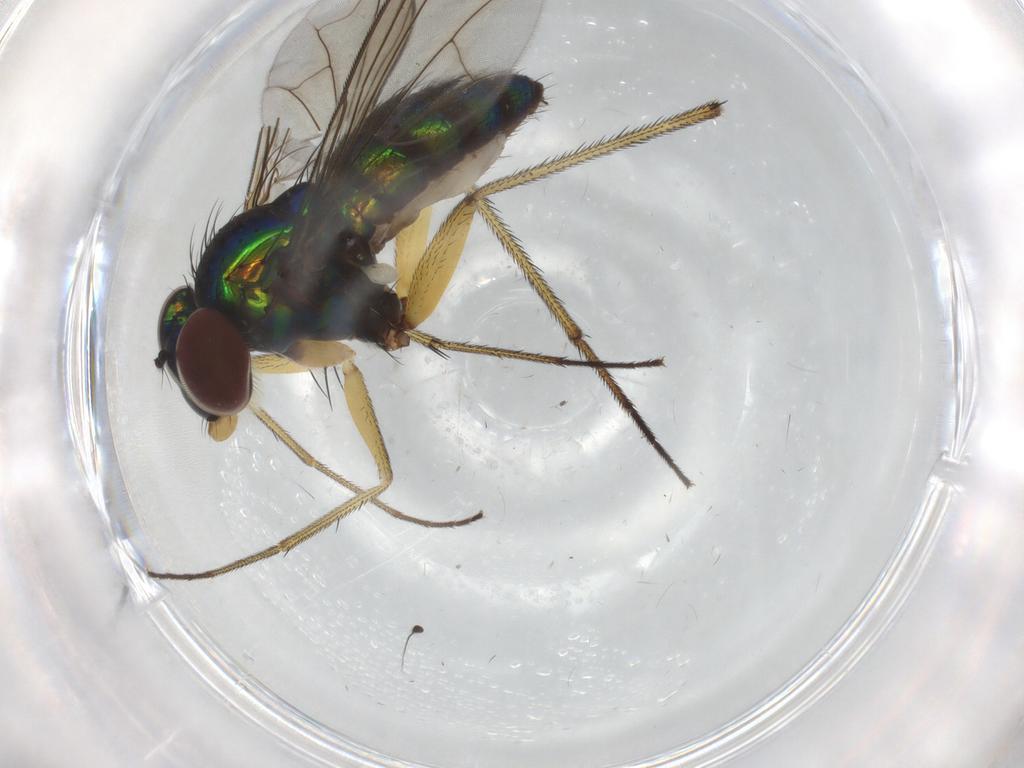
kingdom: Animalia
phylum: Arthropoda
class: Insecta
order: Diptera
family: Dolichopodidae
